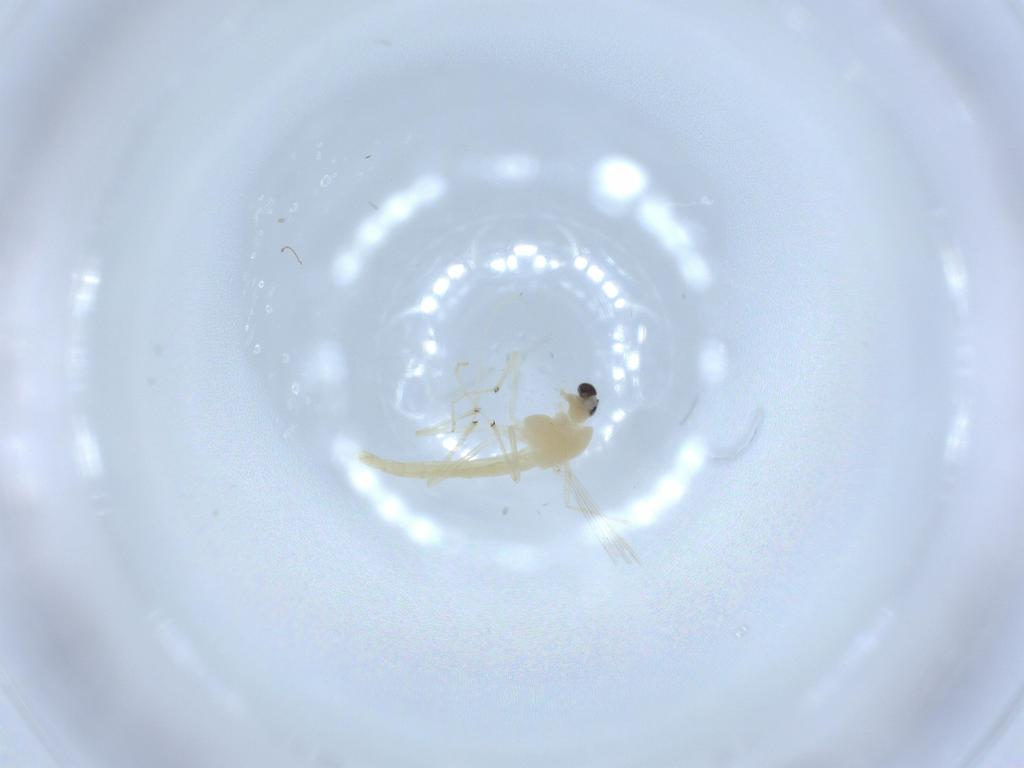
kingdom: Animalia
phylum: Arthropoda
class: Insecta
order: Diptera
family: Chironomidae
